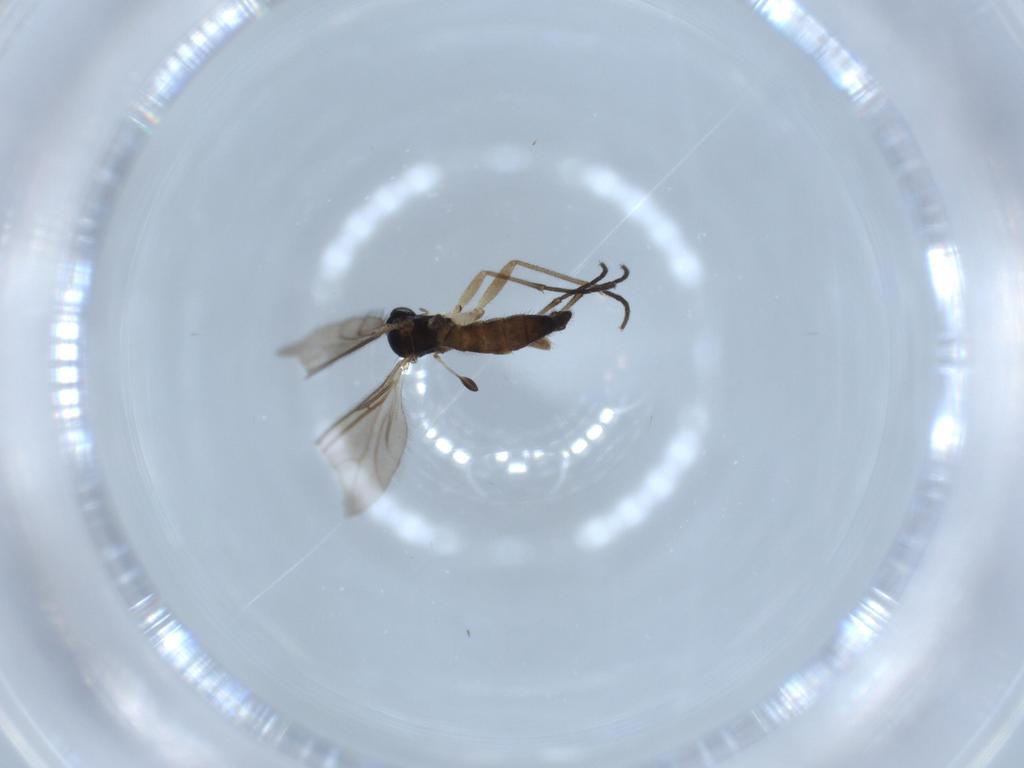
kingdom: Animalia
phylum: Arthropoda
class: Insecta
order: Diptera
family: Sciaridae
